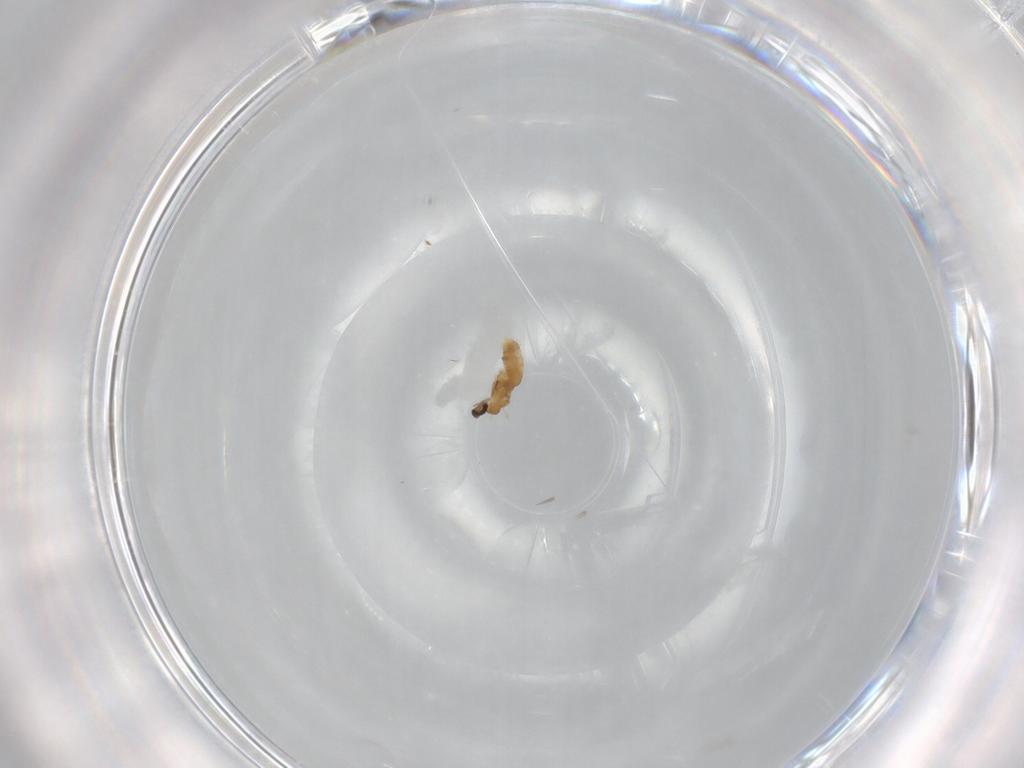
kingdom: Animalia
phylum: Arthropoda
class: Insecta
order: Diptera
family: Cecidomyiidae
